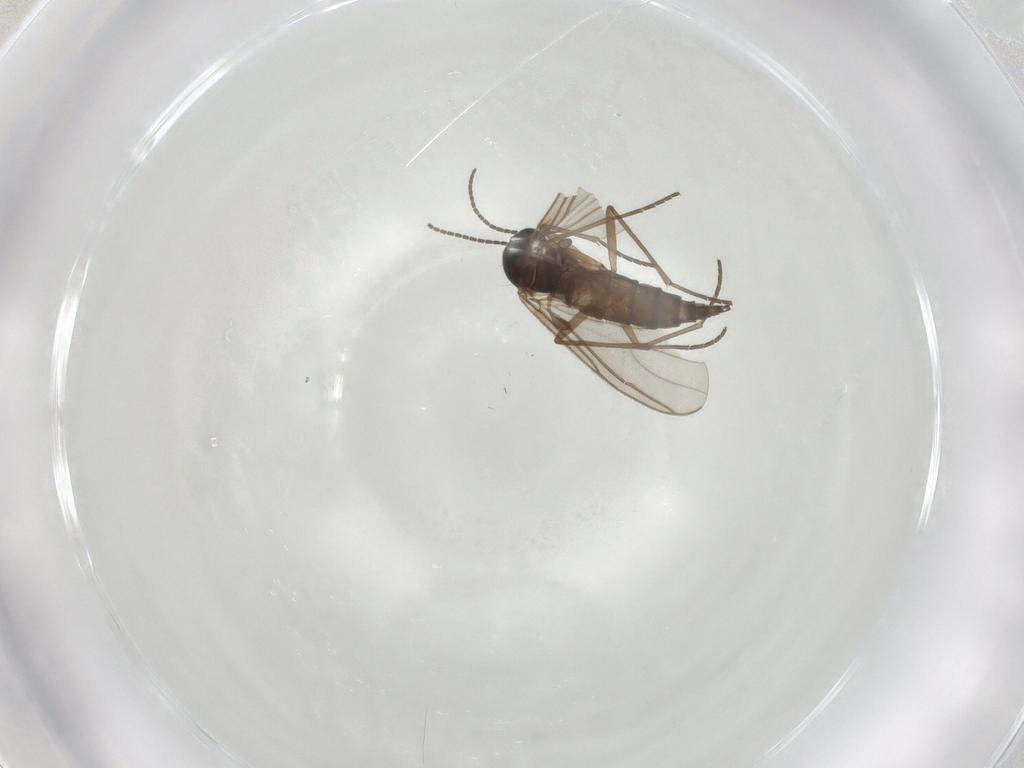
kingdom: Animalia
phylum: Arthropoda
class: Insecta
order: Diptera
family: Sciaridae
